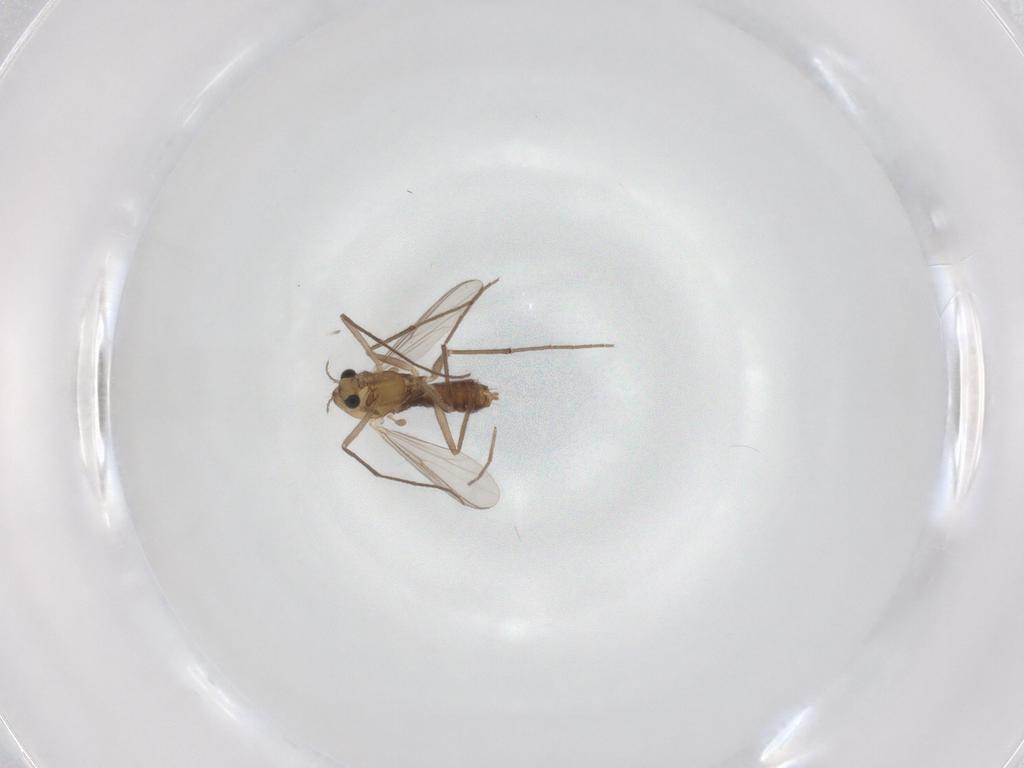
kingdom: Animalia
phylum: Arthropoda
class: Insecta
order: Diptera
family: Chironomidae
